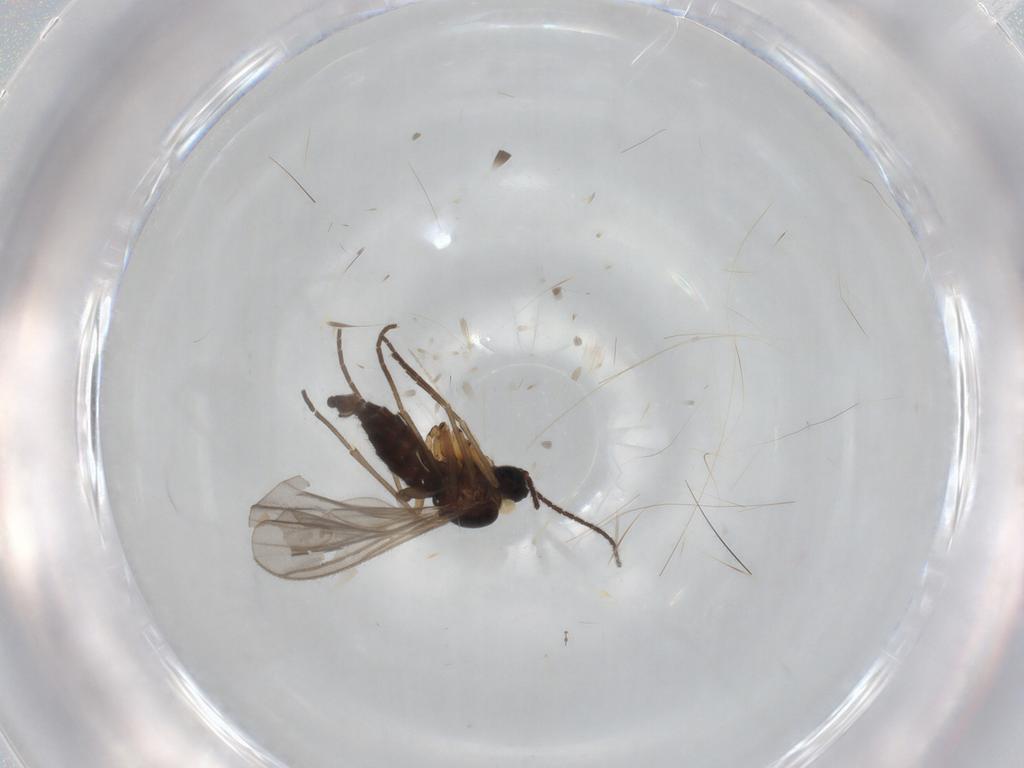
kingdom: Animalia
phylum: Arthropoda
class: Insecta
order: Diptera
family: Sciaridae
